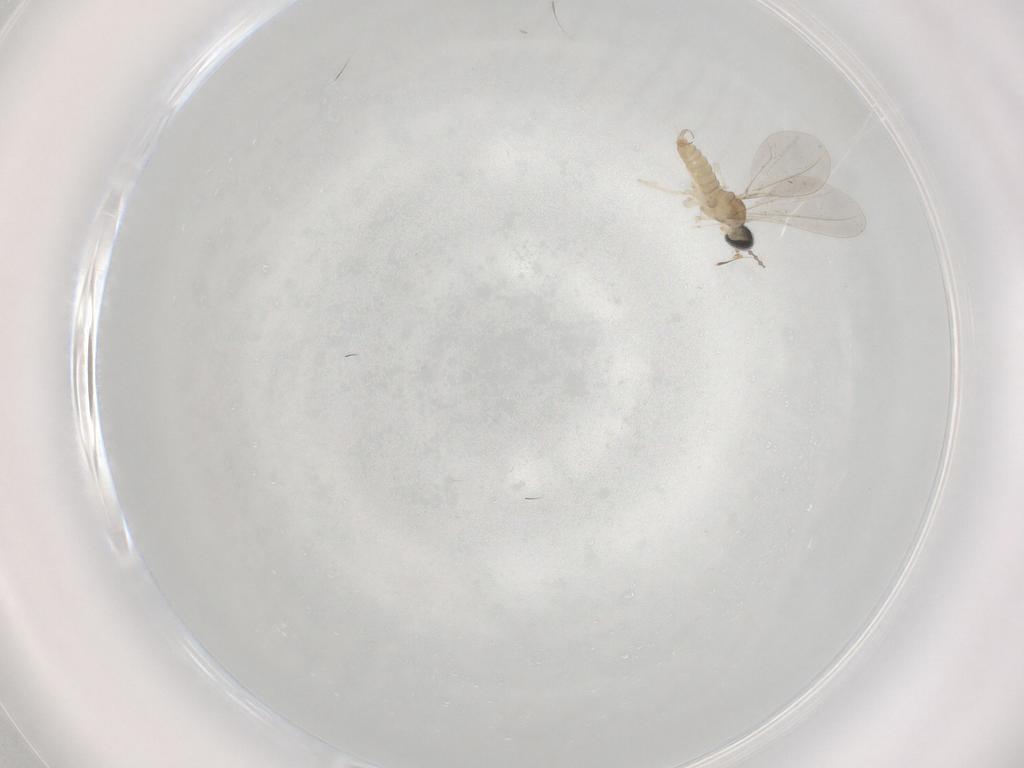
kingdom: Animalia
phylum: Arthropoda
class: Insecta
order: Diptera
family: Cecidomyiidae
